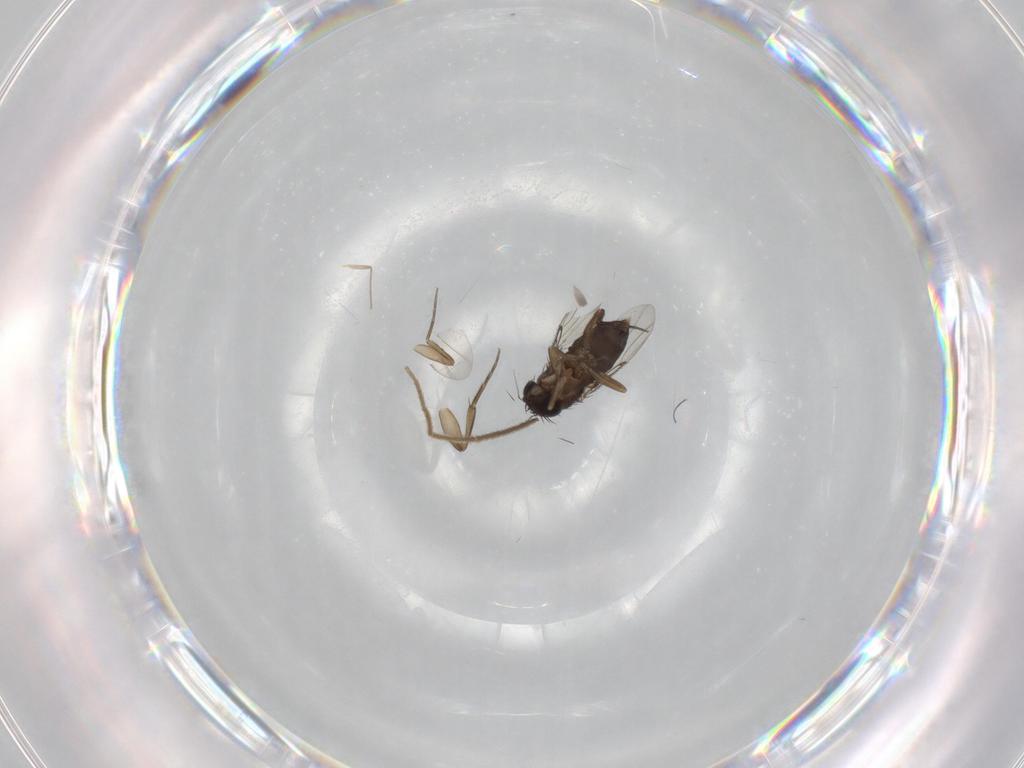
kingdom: Animalia
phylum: Arthropoda
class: Insecta
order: Diptera
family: Phoridae
